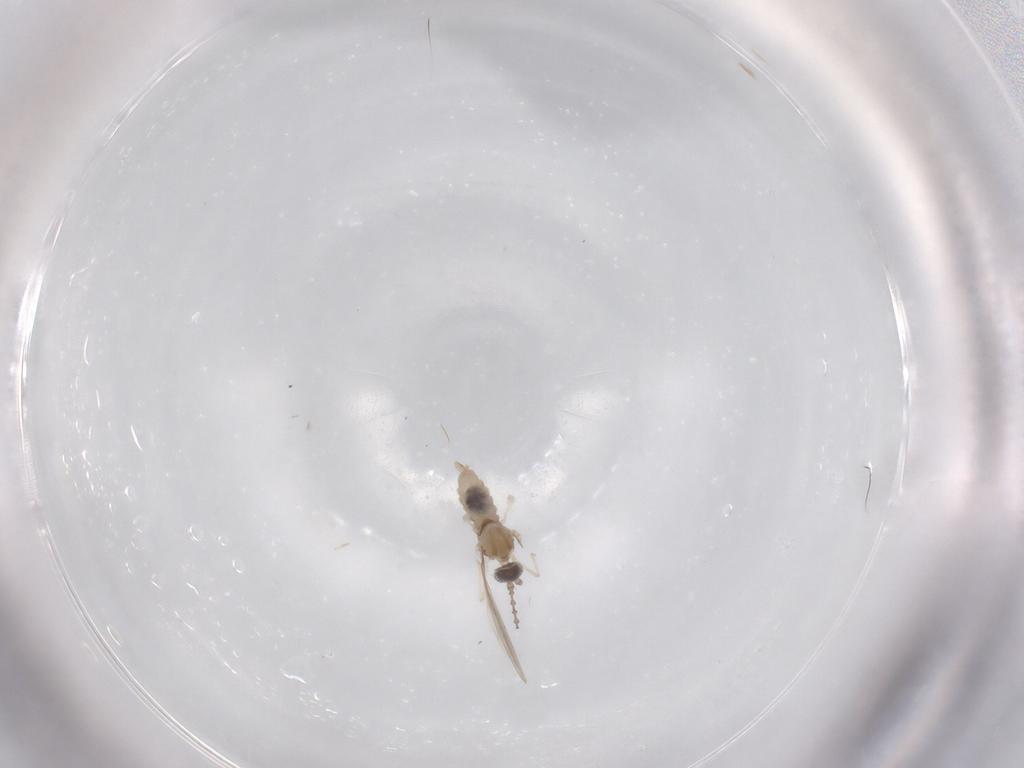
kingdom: Animalia
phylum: Arthropoda
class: Insecta
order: Diptera
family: Cecidomyiidae
